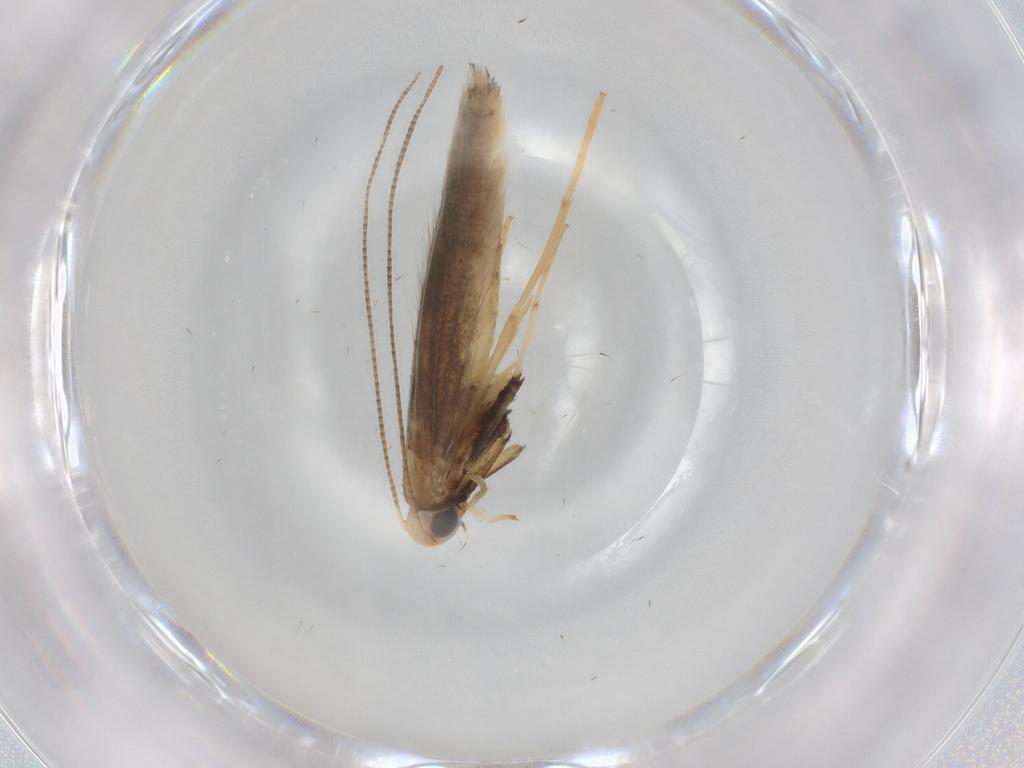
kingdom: Animalia
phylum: Arthropoda
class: Insecta
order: Lepidoptera
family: Gracillariidae
